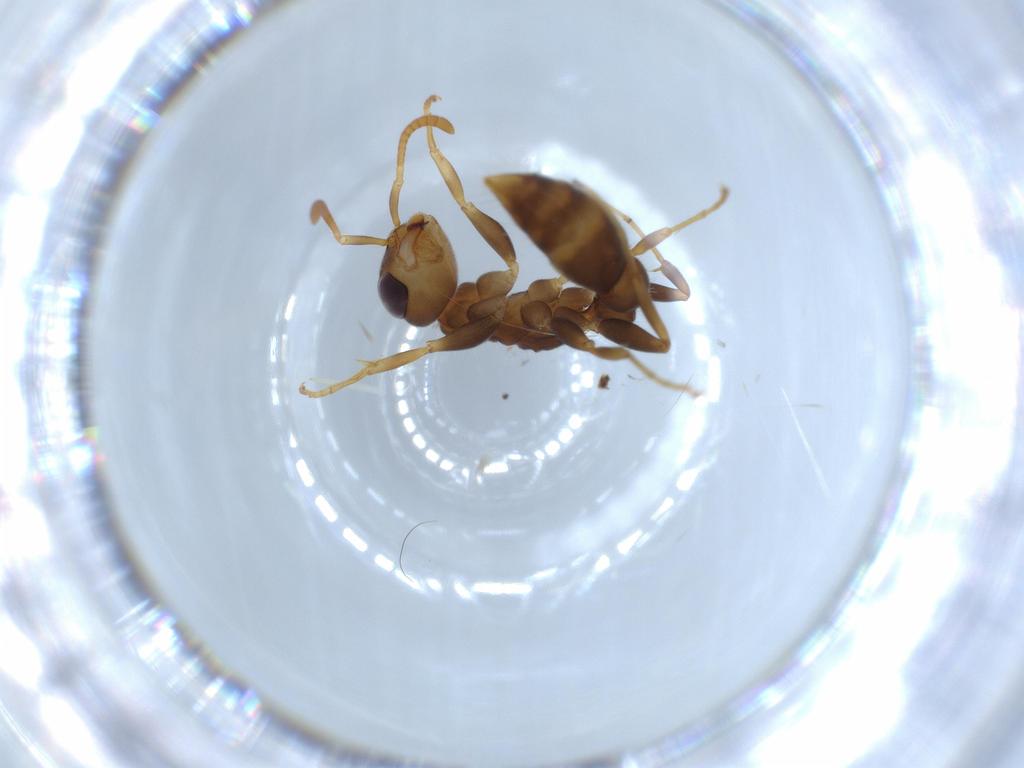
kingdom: Animalia
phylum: Arthropoda
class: Insecta
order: Hymenoptera
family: Formicidae
